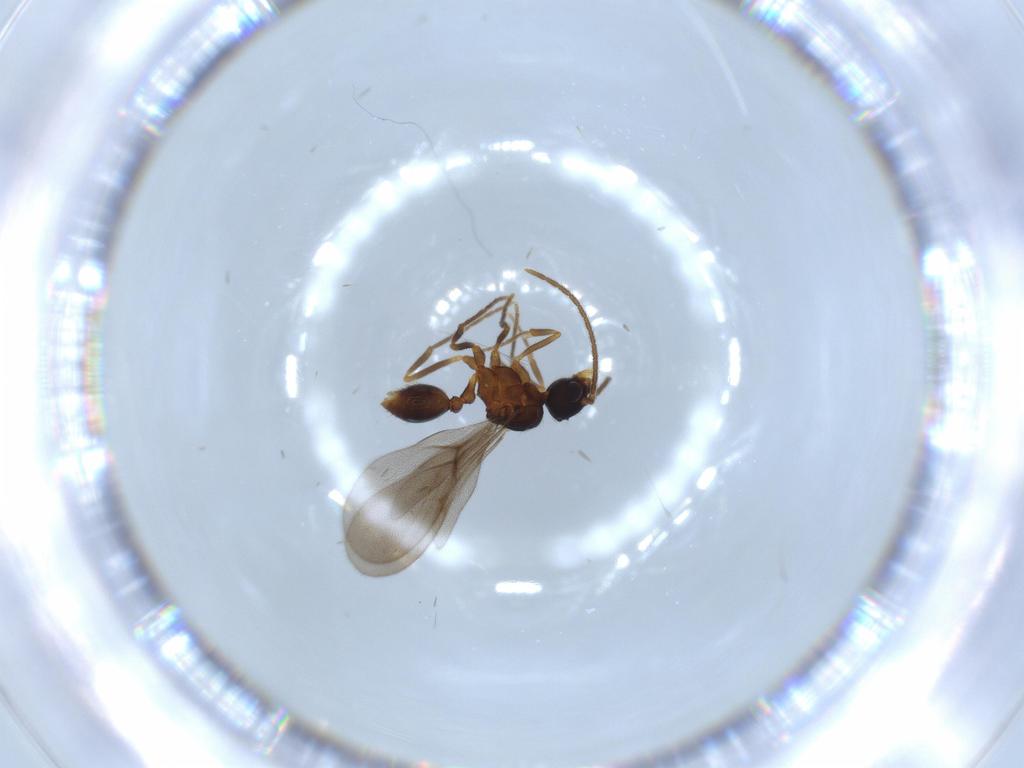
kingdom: Animalia
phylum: Arthropoda
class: Insecta
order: Hymenoptera
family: Formicidae
